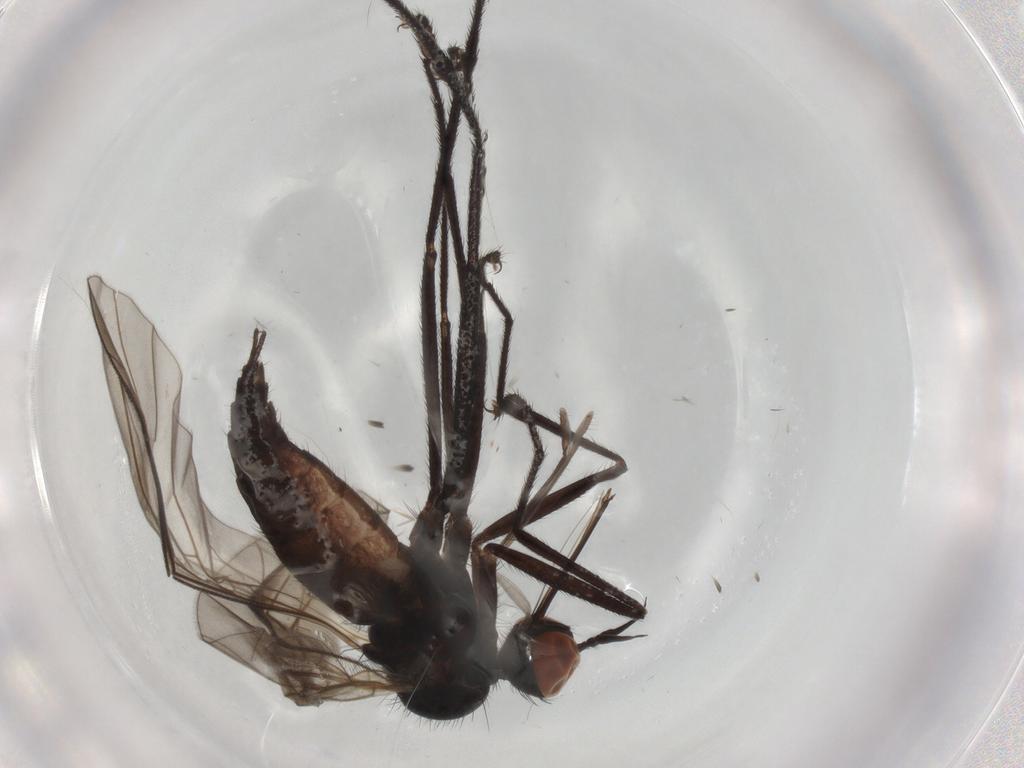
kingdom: Animalia
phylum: Arthropoda
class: Insecta
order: Diptera
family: Empididae
